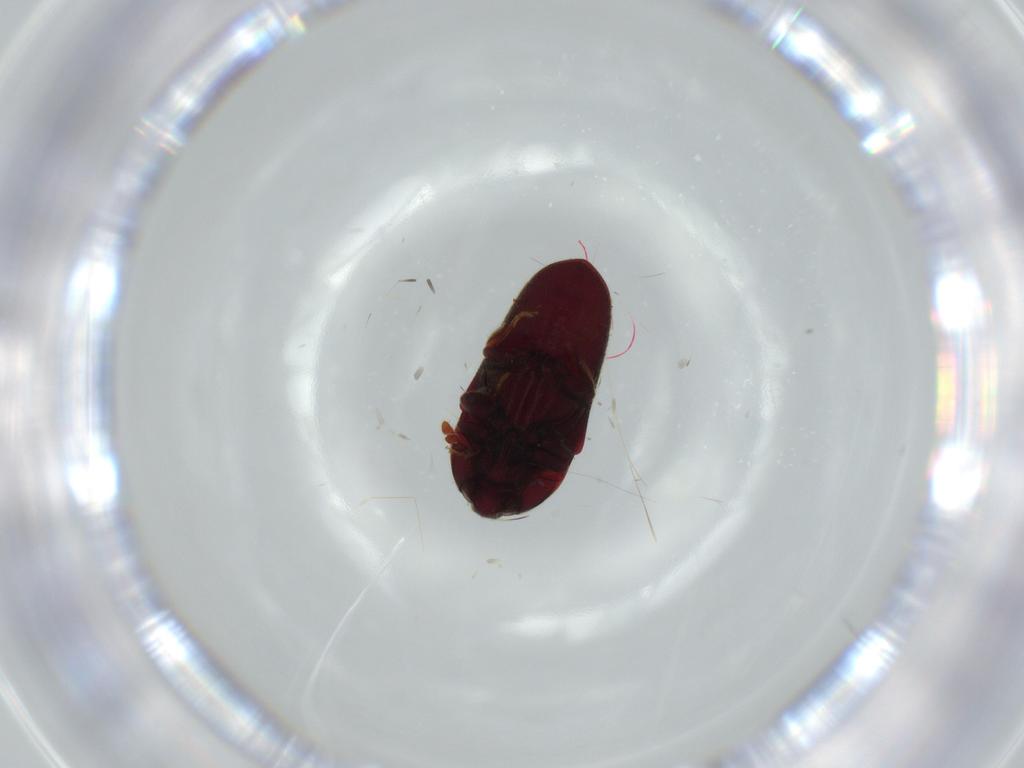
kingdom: Animalia
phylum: Arthropoda
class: Insecta
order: Coleoptera
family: Throscidae
